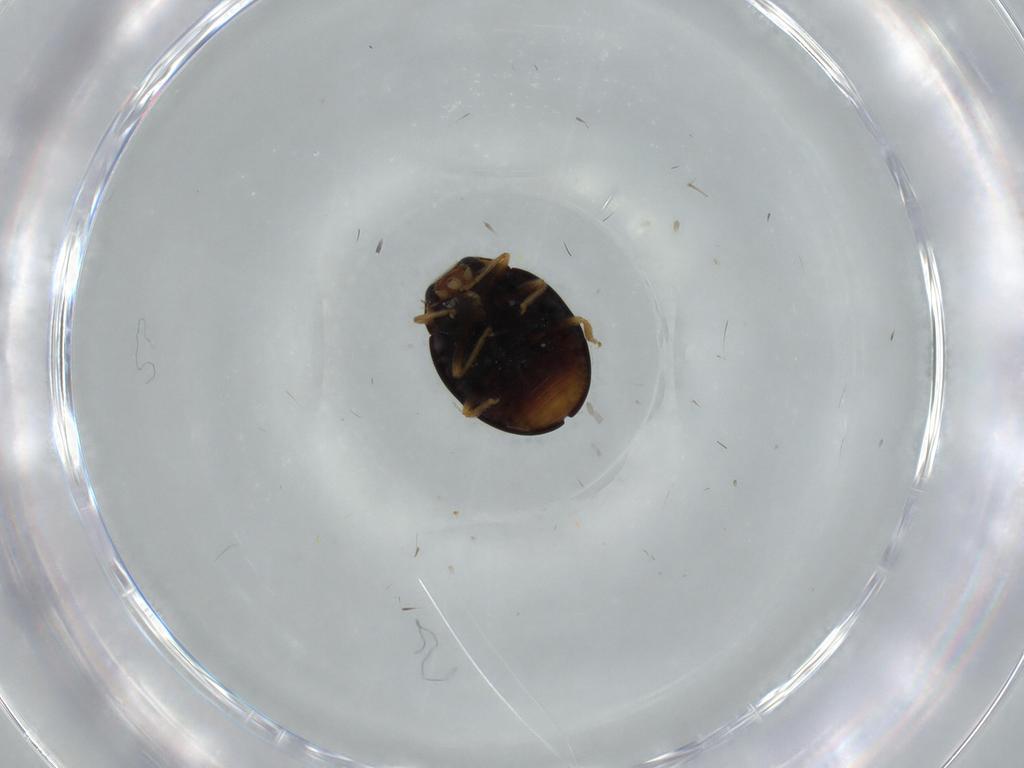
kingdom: Animalia
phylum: Arthropoda
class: Insecta
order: Coleoptera
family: Coccinellidae
